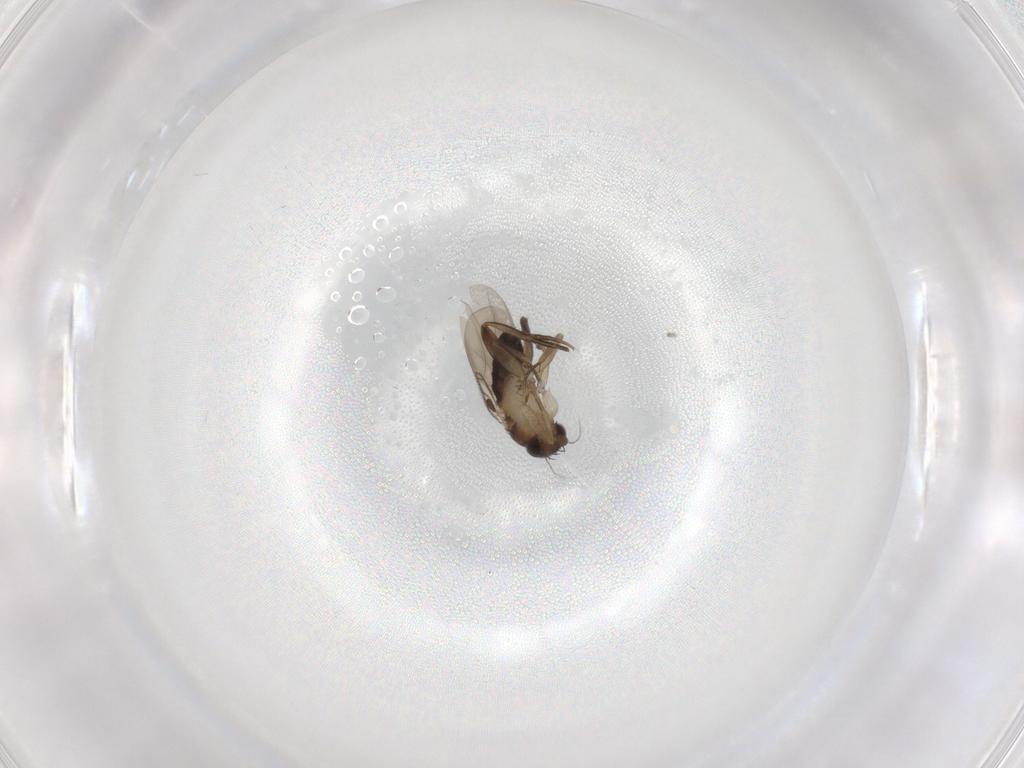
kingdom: Animalia
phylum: Arthropoda
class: Insecta
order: Diptera
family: Phoridae
